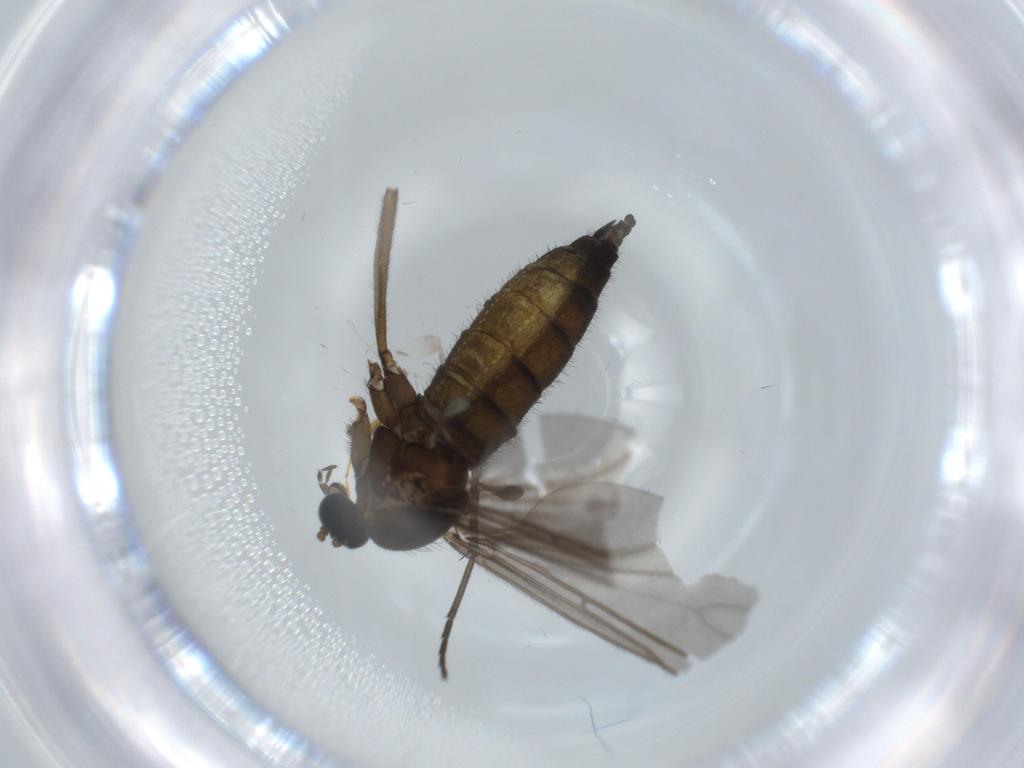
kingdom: Animalia
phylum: Arthropoda
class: Insecta
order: Diptera
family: Sciaridae
